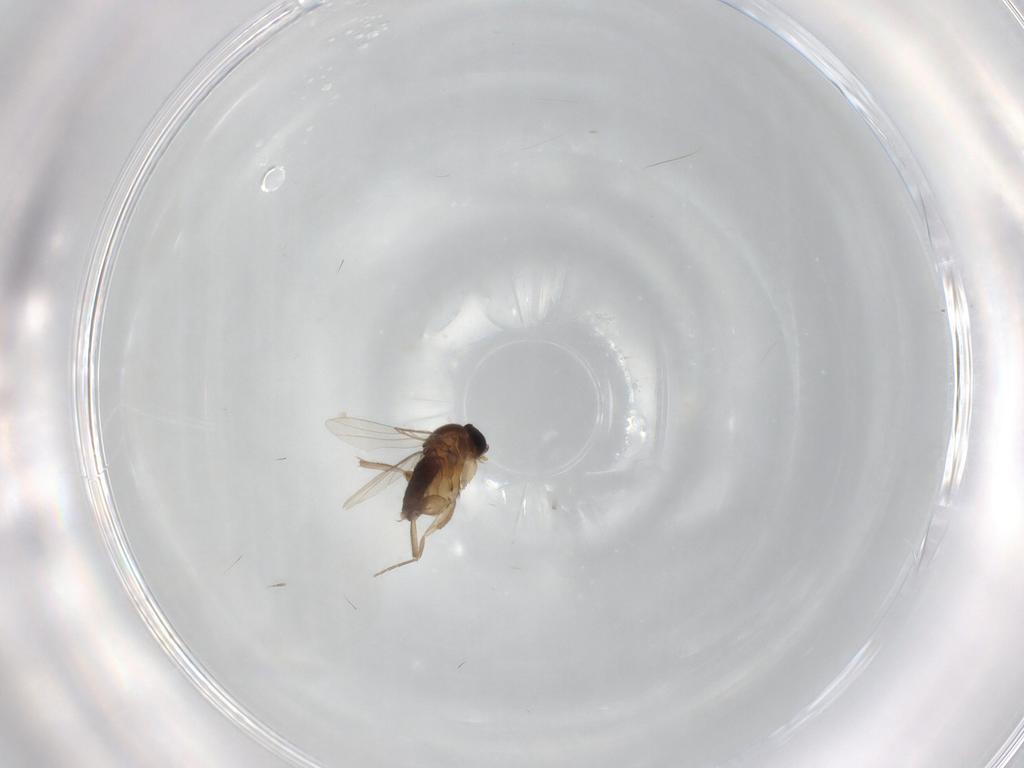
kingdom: Animalia
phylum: Arthropoda
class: Insecta
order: Diptera
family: Phoridae
